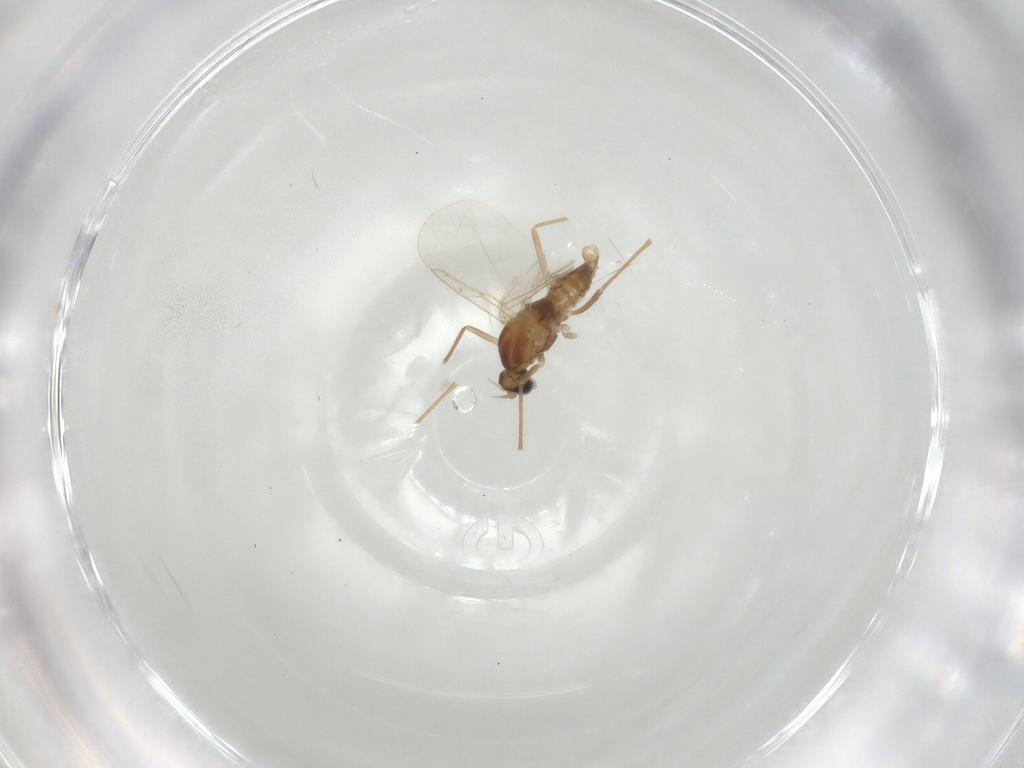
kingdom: Animalia
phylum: Arthropoda
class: Insecta
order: Diptera
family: Cecidomyiidae
